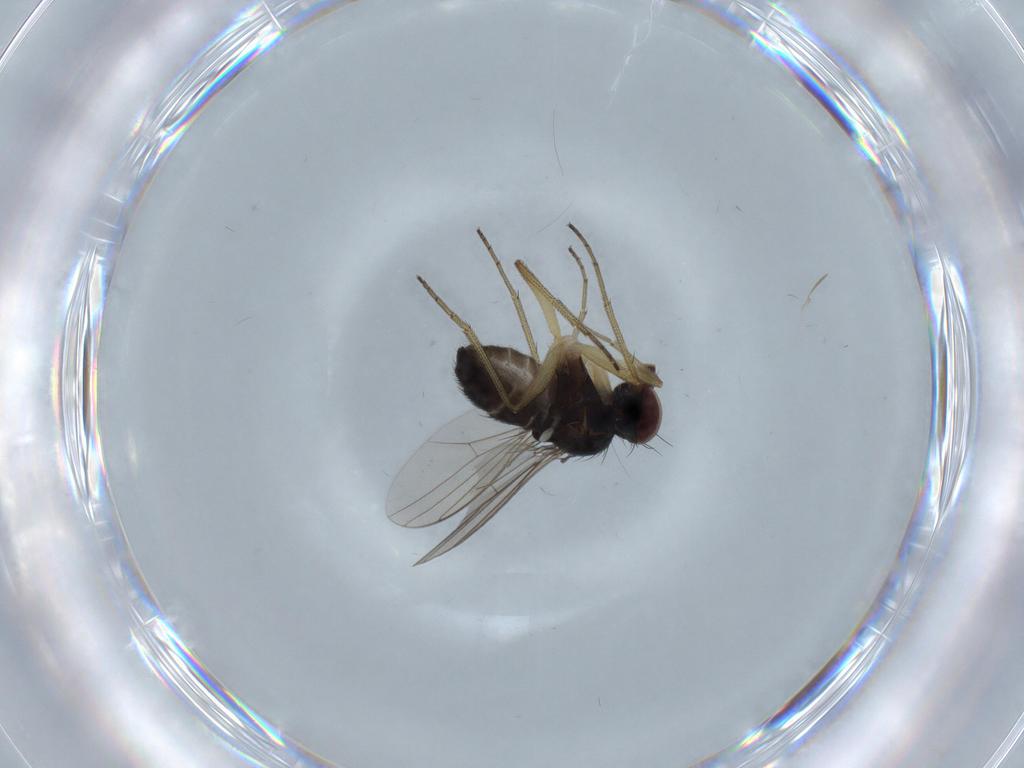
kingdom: Animalia
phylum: Arthropoda
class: Insecta
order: Diptera
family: Dolichopodidae
